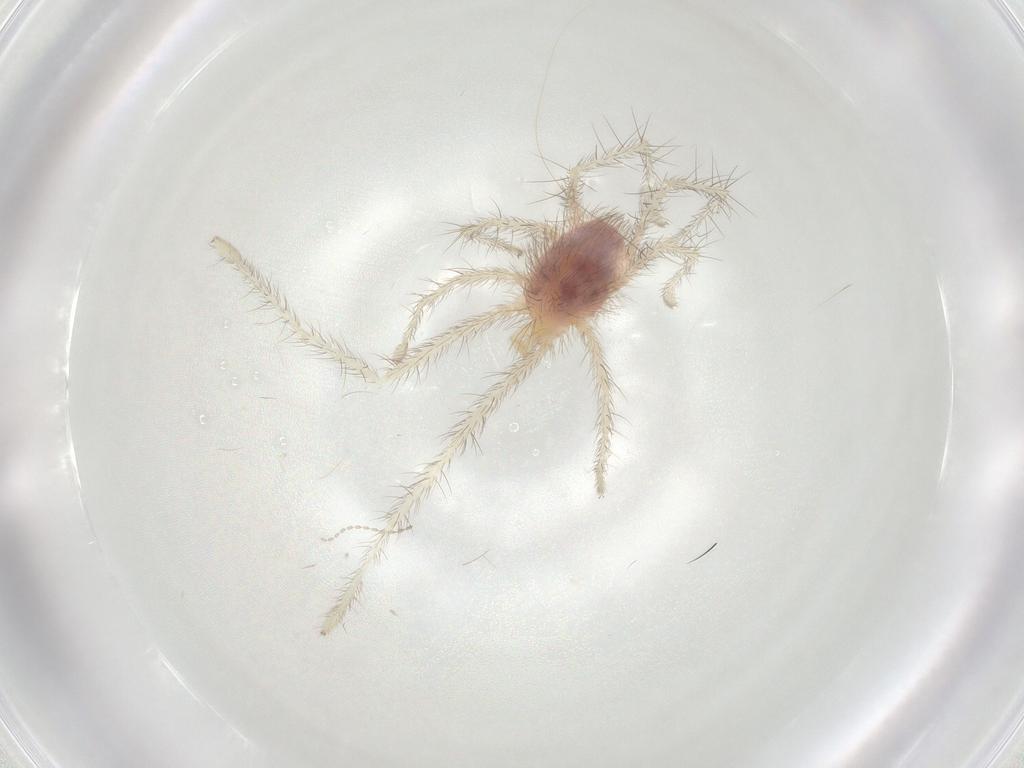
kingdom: Animalia
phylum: Arthropoda
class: Arachnida
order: Trombidiformes
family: Erythraeidae
